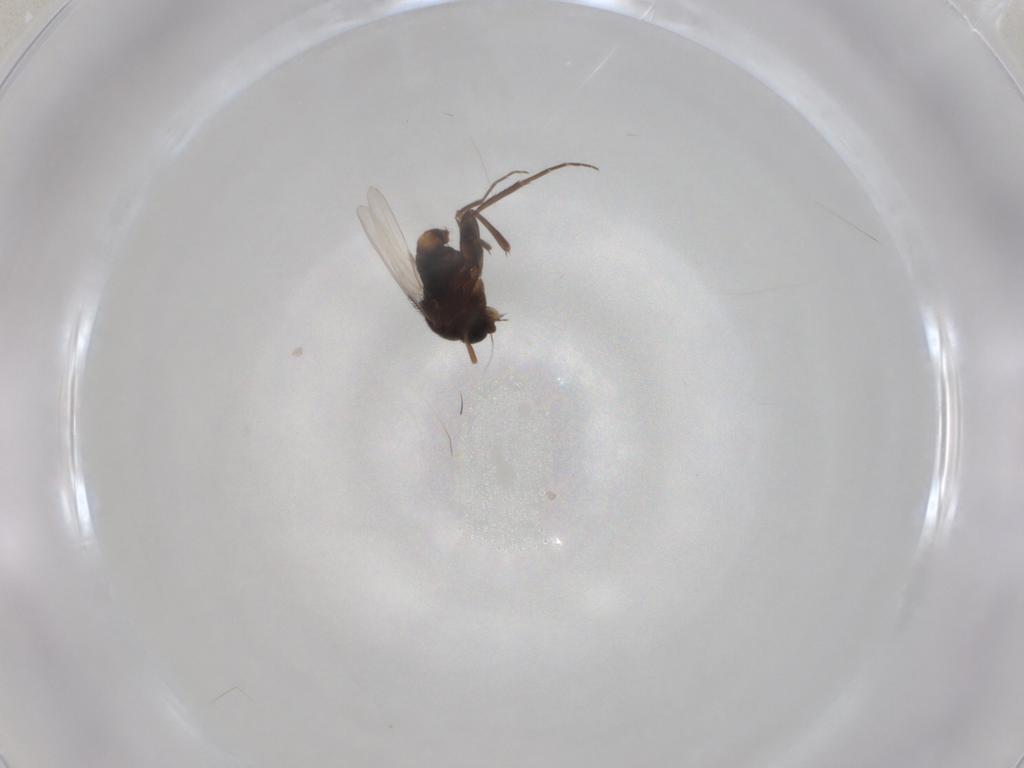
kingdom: Animalia
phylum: Arthropoda
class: Insecta
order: Diptera
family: Phoridae
